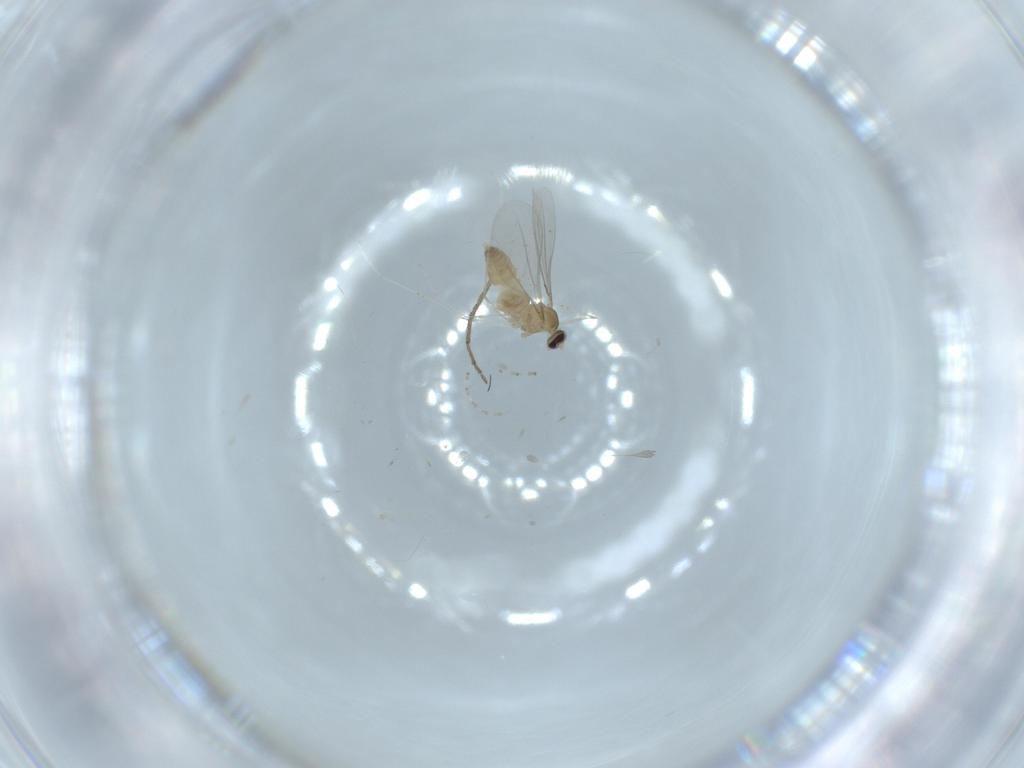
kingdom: Animalia
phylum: Arthropoda
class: Insecta
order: Diptera
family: Cecidomyiidae
